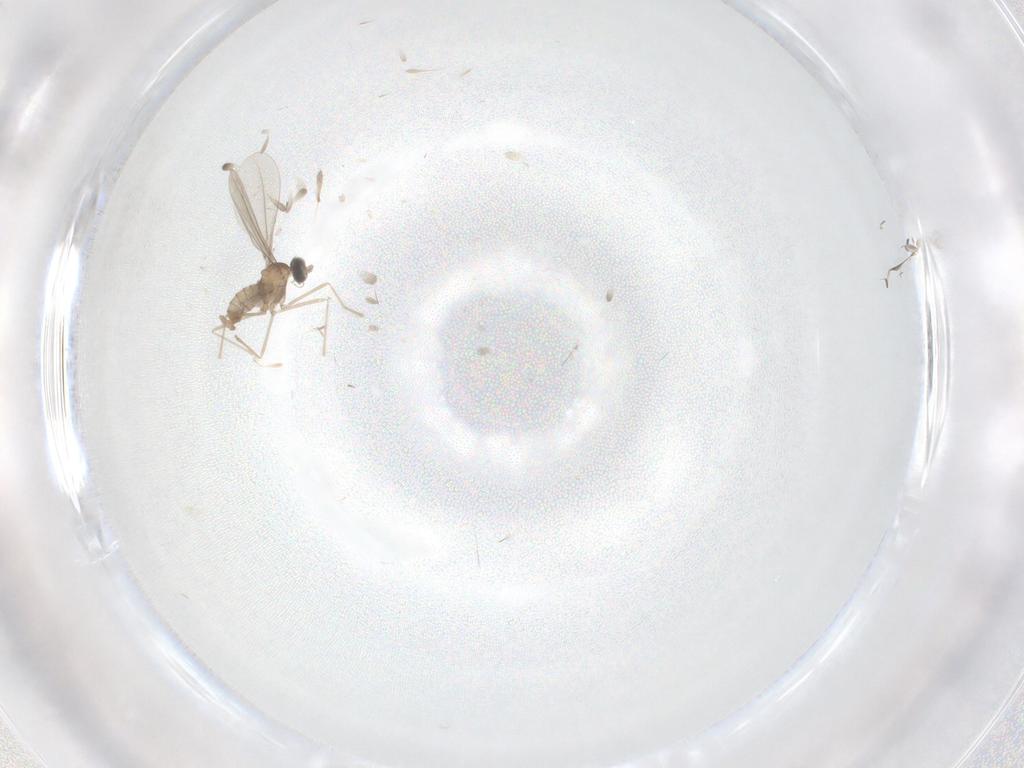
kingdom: Animalia
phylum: Arthropoda
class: Insecta
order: Diptera
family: Cecidomyiidae
